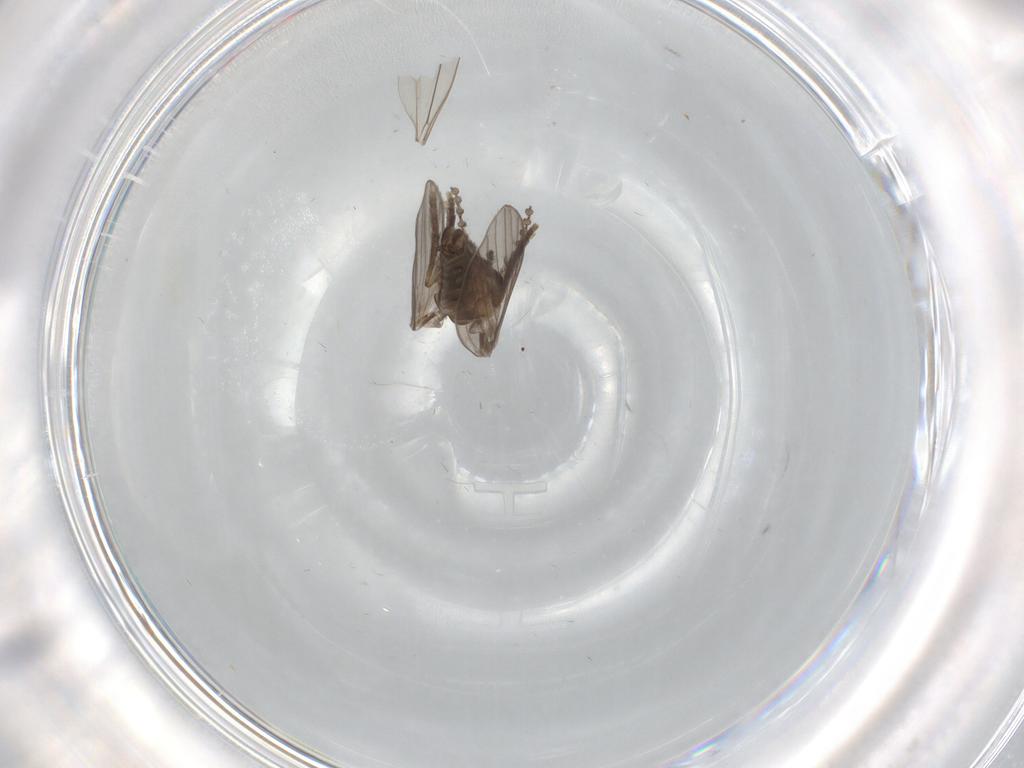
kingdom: Animalia
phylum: Arthropoda
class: Insecta
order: Diptera
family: Psychodidae
